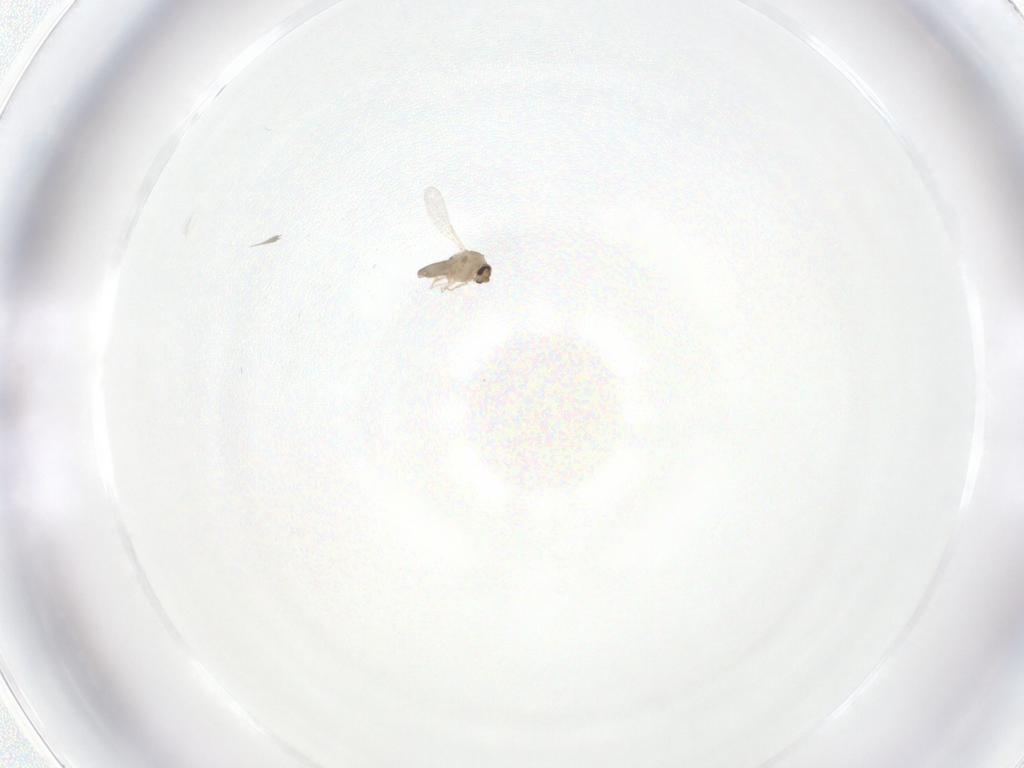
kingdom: Animalia
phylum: Arthropoda
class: Insecta
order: Diptera
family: Ceratopogonidae
